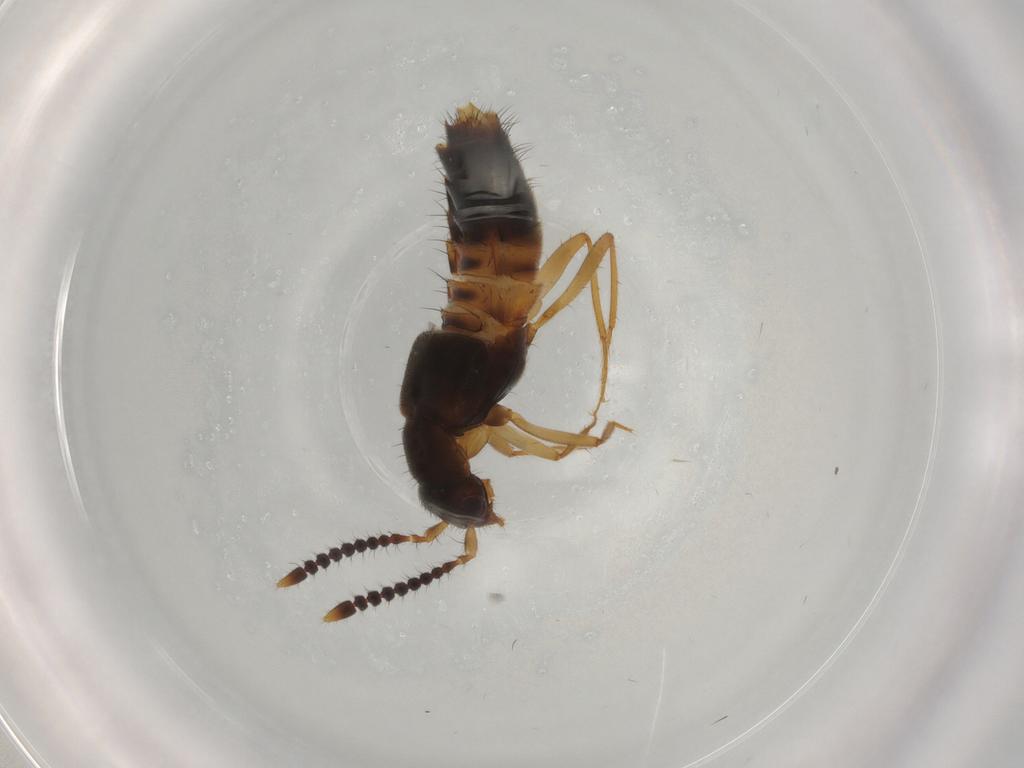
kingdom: Animalia
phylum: Arthropoda
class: Insecta
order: Coleoptera
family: Staphylinidae
